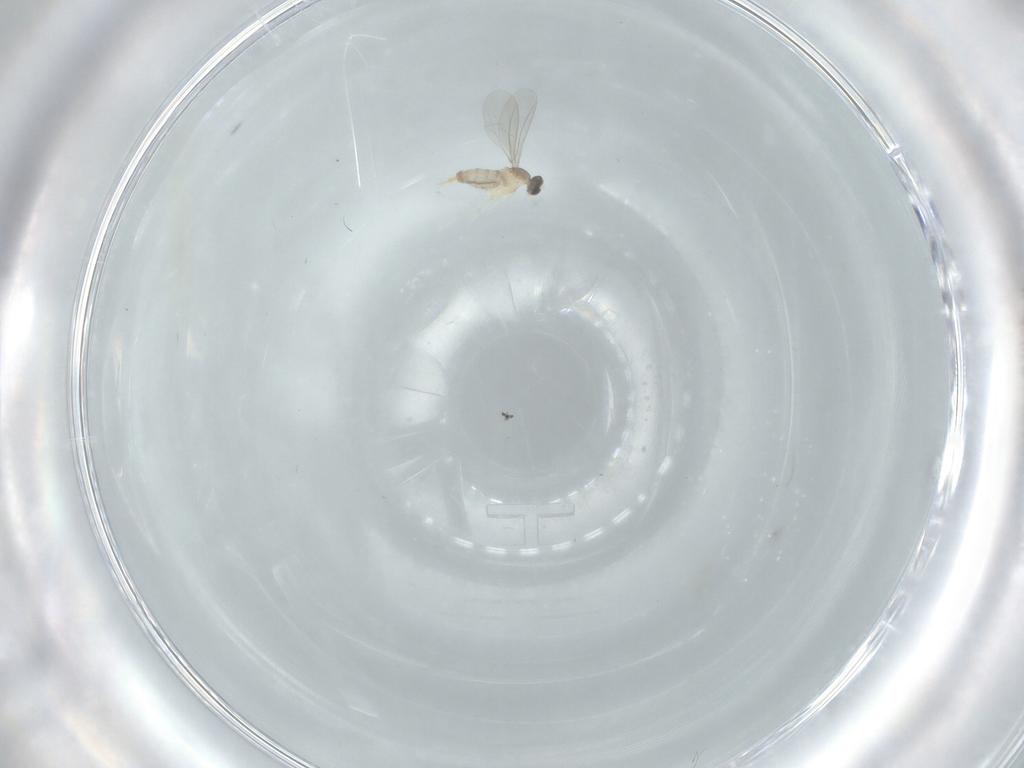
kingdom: Animalia
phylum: Arthropoda
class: Insecta
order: Diptera
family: Cecidomyiidae
